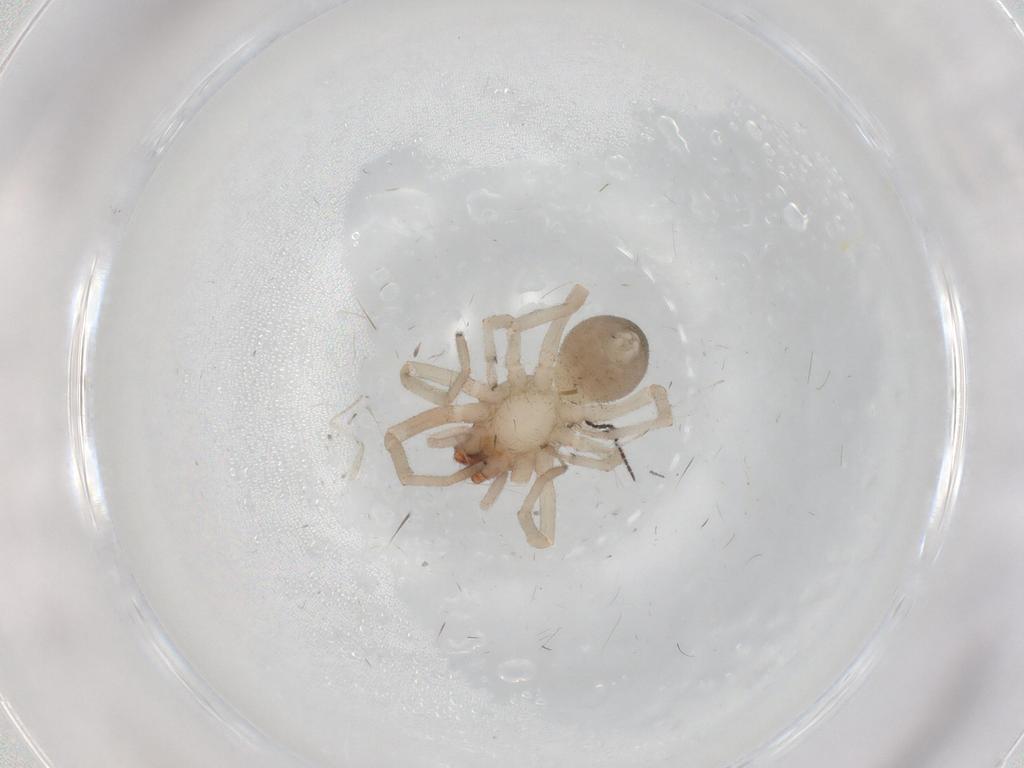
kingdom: Animalia
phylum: Arthropoda
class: Arachnida
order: Araneae
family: Trachelidae
